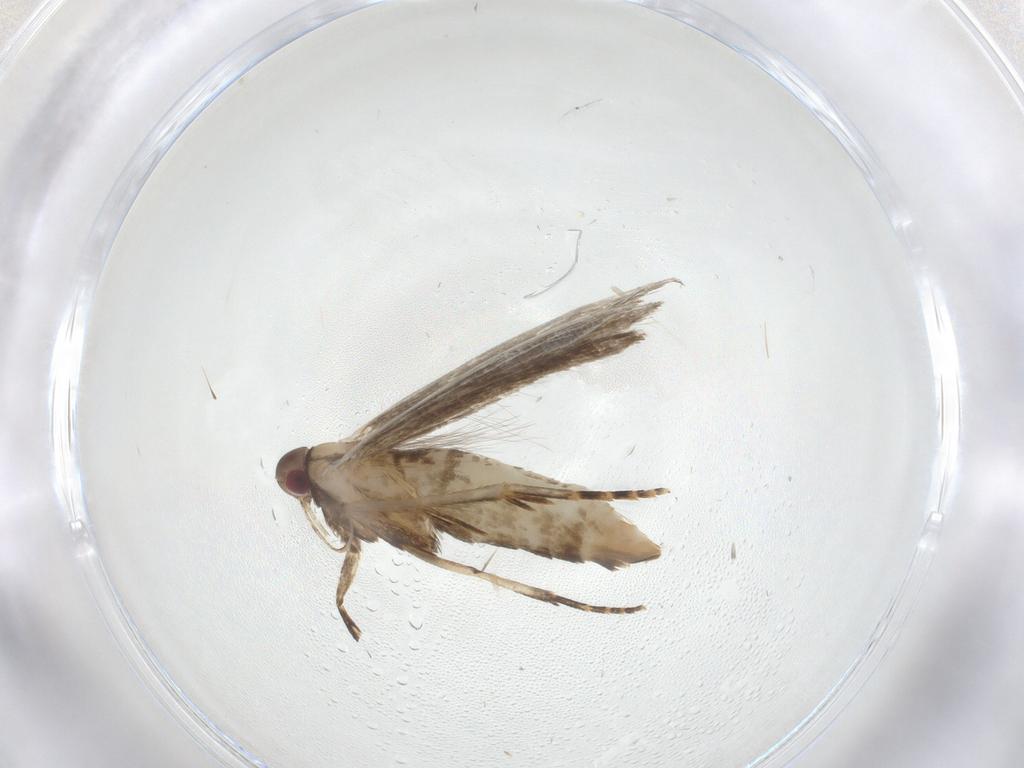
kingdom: Animalia
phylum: Arthropoda
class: Insecta
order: Lepidoptera
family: Gelechiidae
